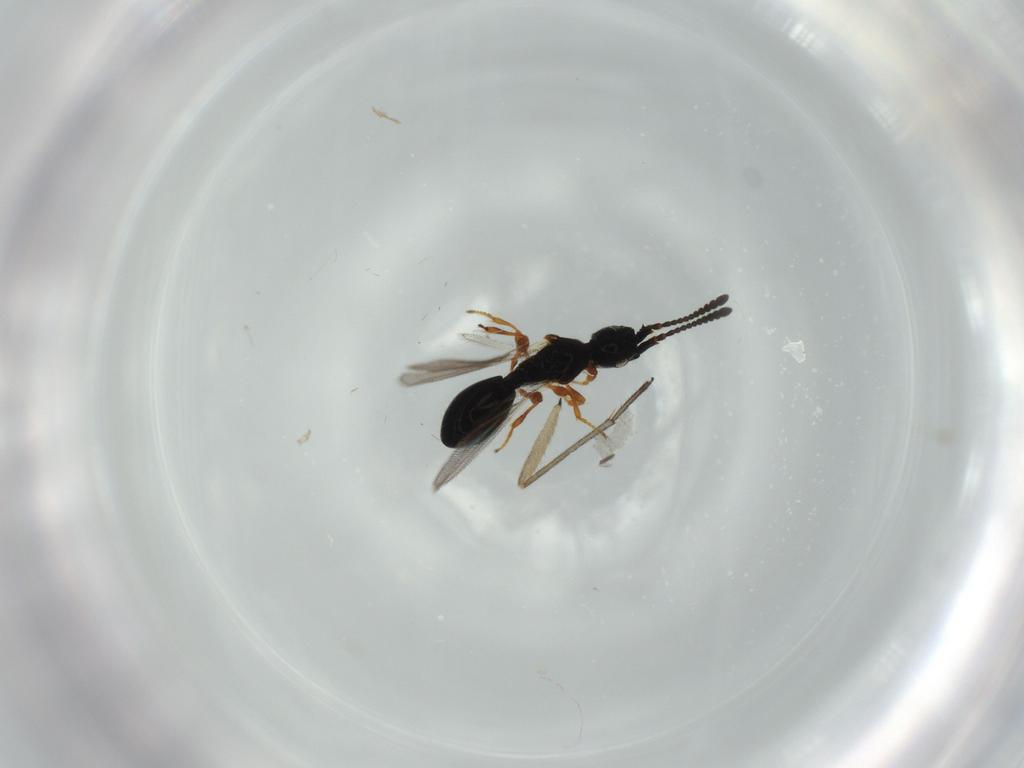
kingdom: Animalia
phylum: Arthropoda
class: Insecta
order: Hymenoptera
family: Diapriidae
